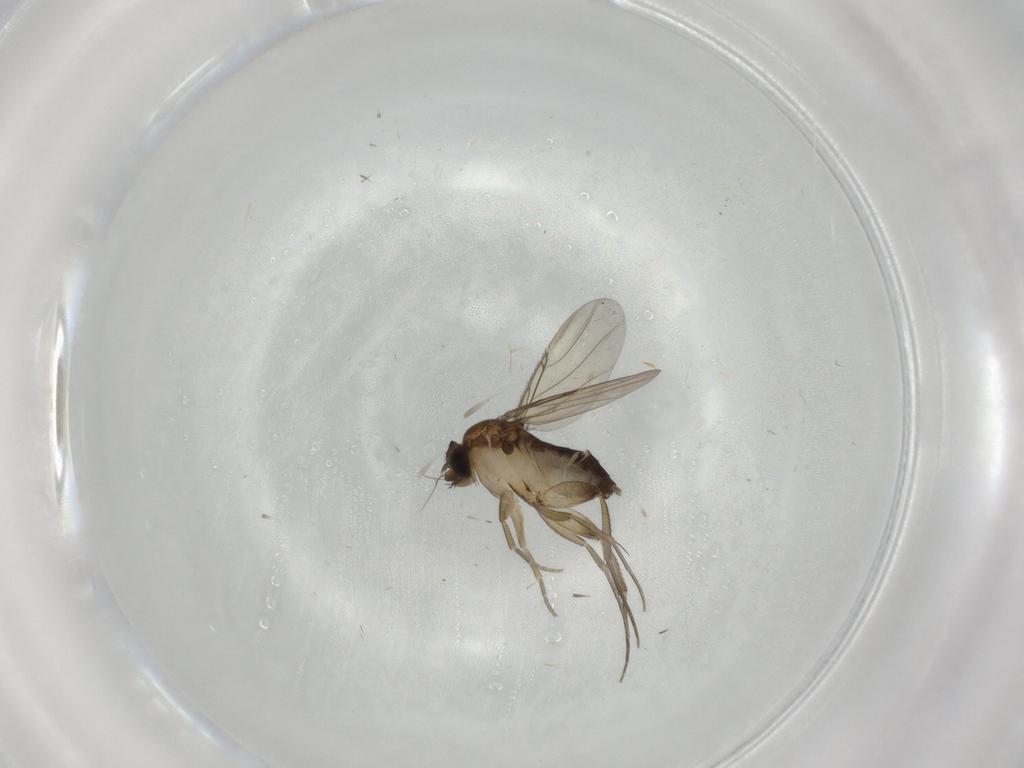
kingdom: Animalia
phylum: Arthropoda
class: Insecta
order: Diptera
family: Phoridae
